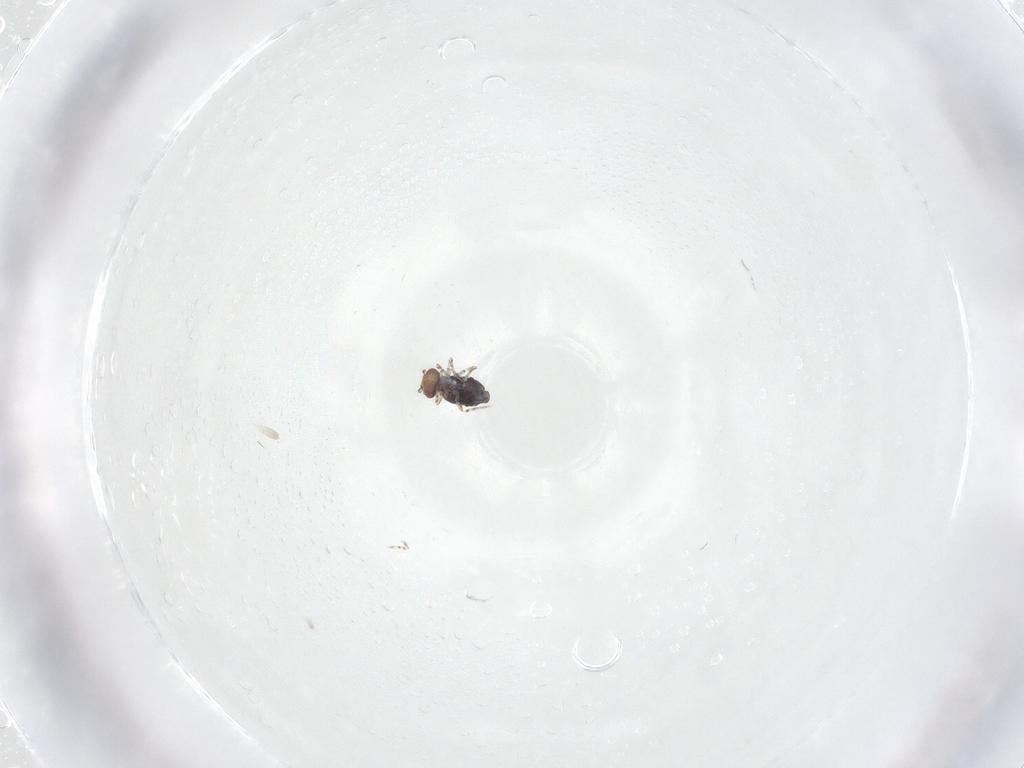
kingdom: Animalia
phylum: Arthropoda
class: Collembola
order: Symphypleona
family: Bourletiellidae
